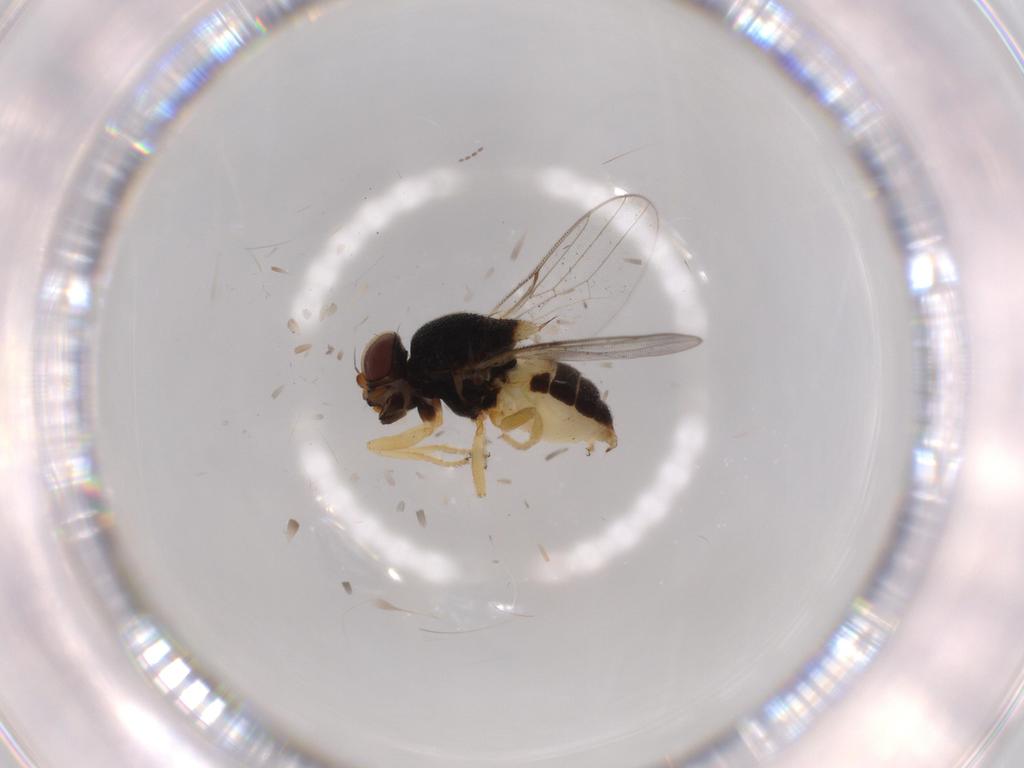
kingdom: Animalia
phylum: Arthropoda
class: Insecta
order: Diptera
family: Chloropidae
